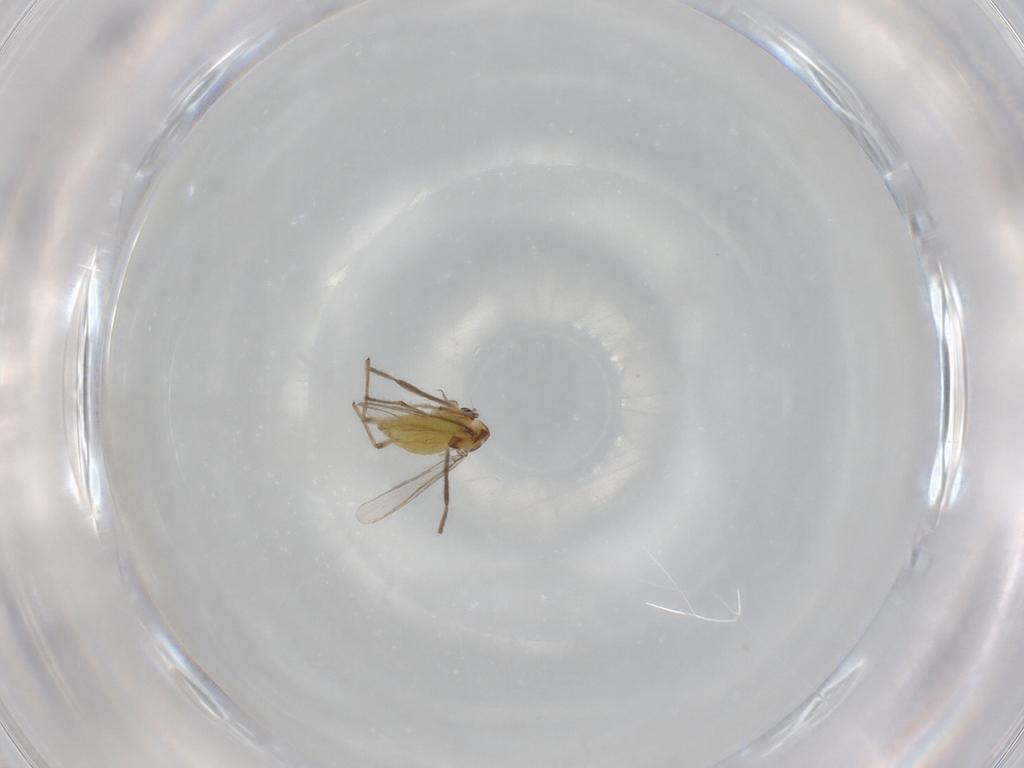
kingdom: Animalia
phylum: Arthropoda
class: Insecta
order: Diptera
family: Chironomidae
